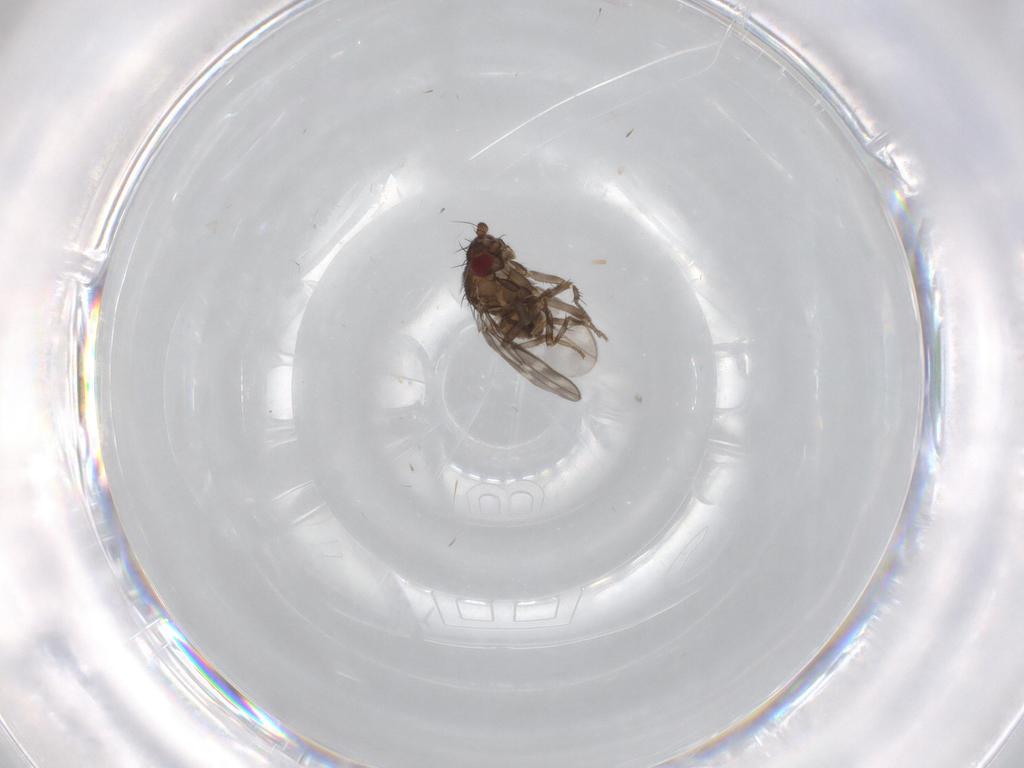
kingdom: Animalia
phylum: Arthropoda
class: Insecta
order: Diptera
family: Sphaeroceridae
